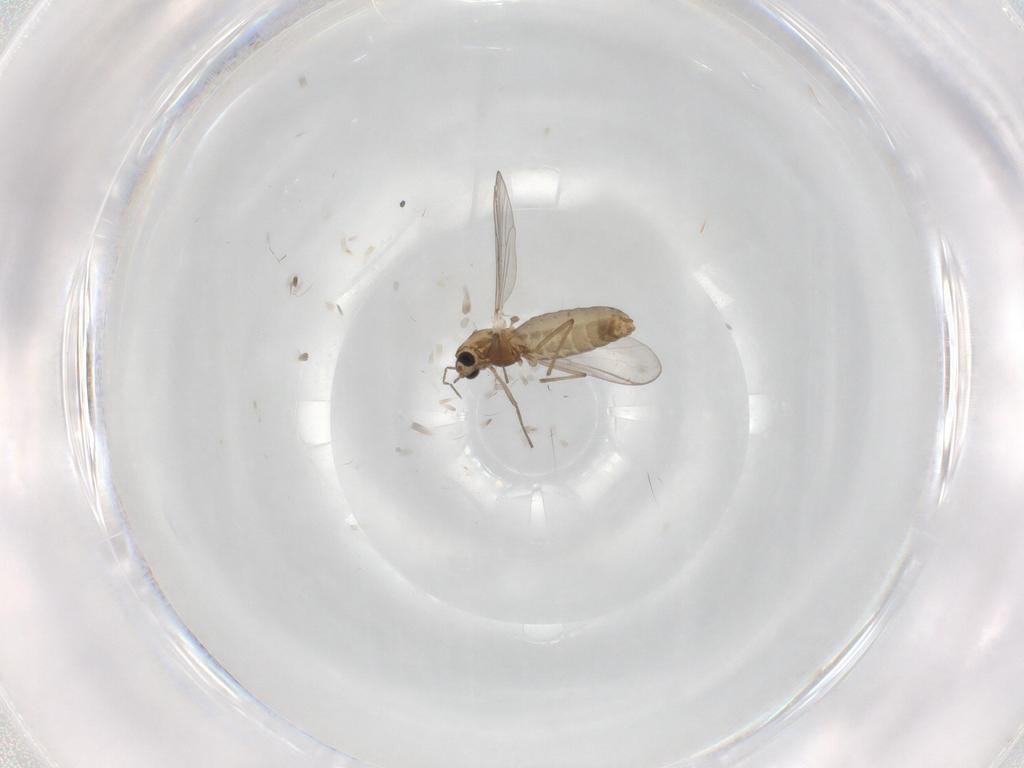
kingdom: Animalia
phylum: Arthropoda
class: Insecta
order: Diptera
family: Chironomidae
